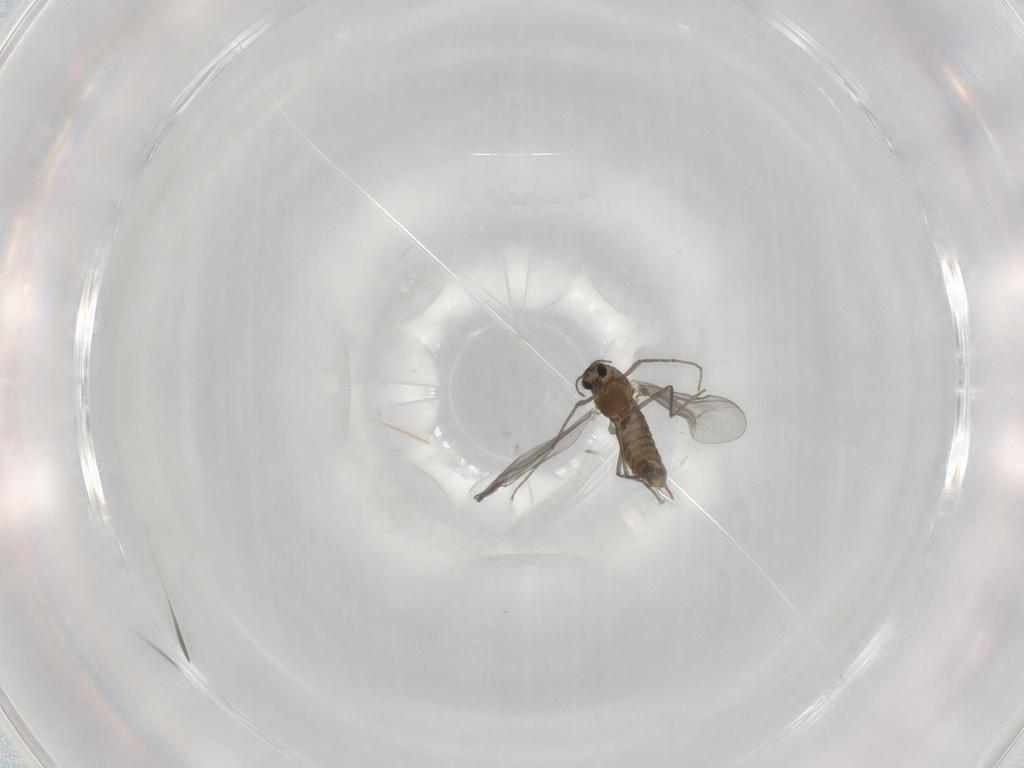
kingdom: Animalia
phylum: Arthropoda
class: Insecta
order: Diptera
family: Chironomidae
